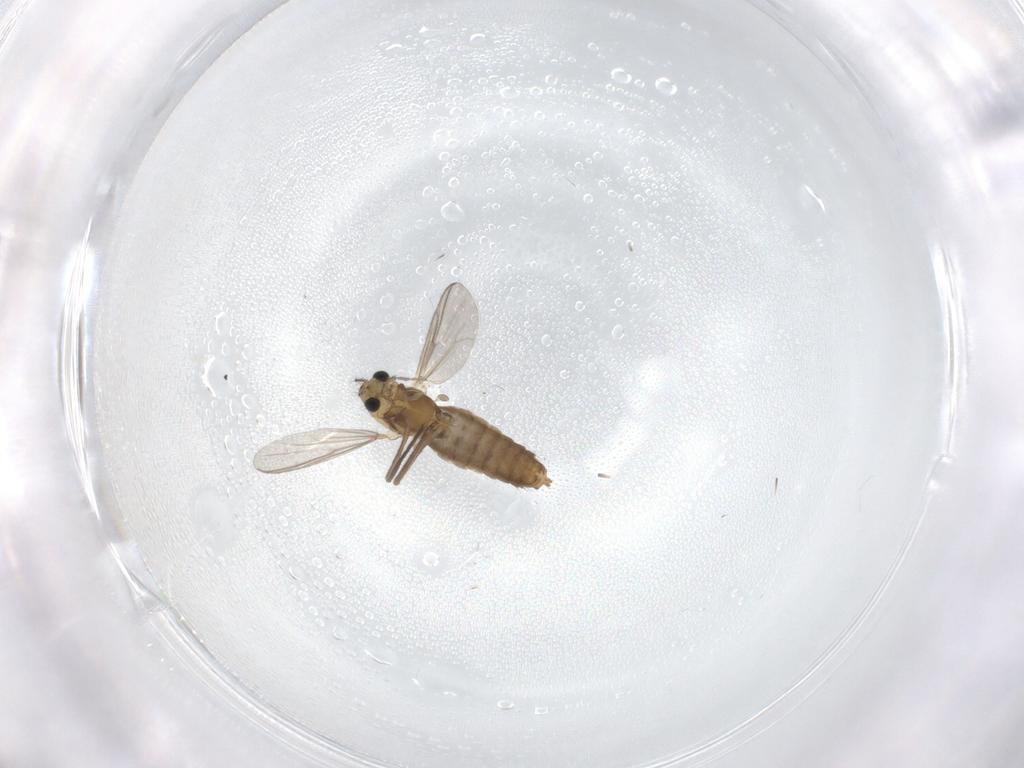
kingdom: Animalia
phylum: Arthropoda
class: Insecta
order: Diptera
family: Chironomidae
